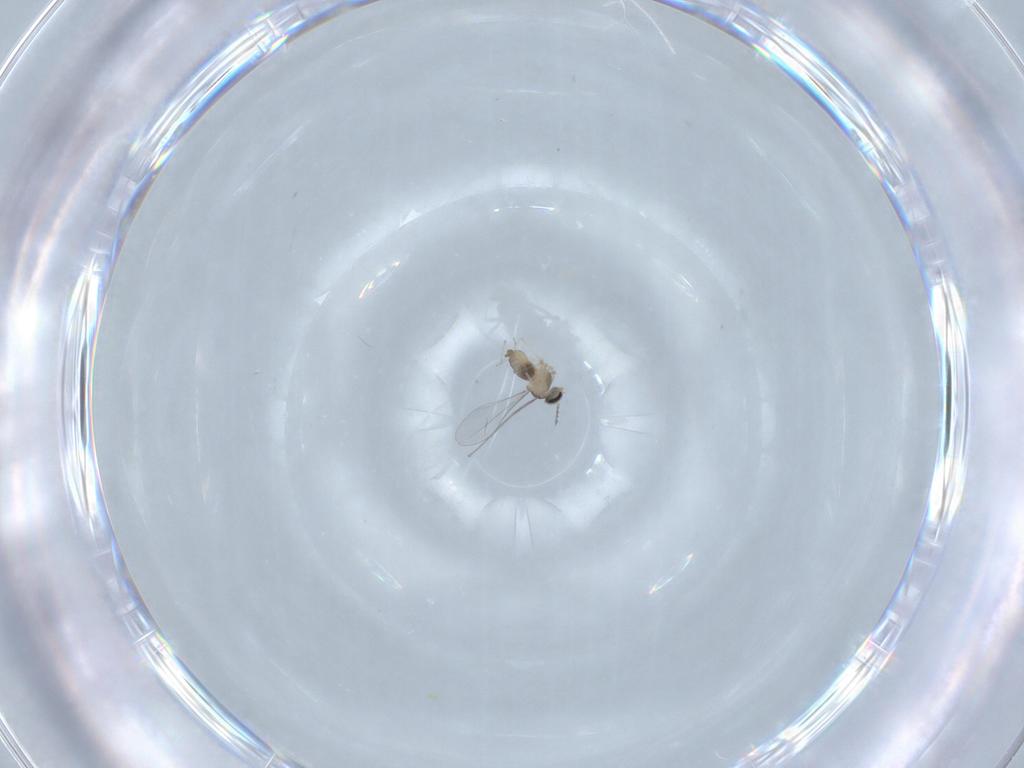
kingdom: Animalia
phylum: Arthropoda
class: Insecta
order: Diptera
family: Cecidomyiidae
